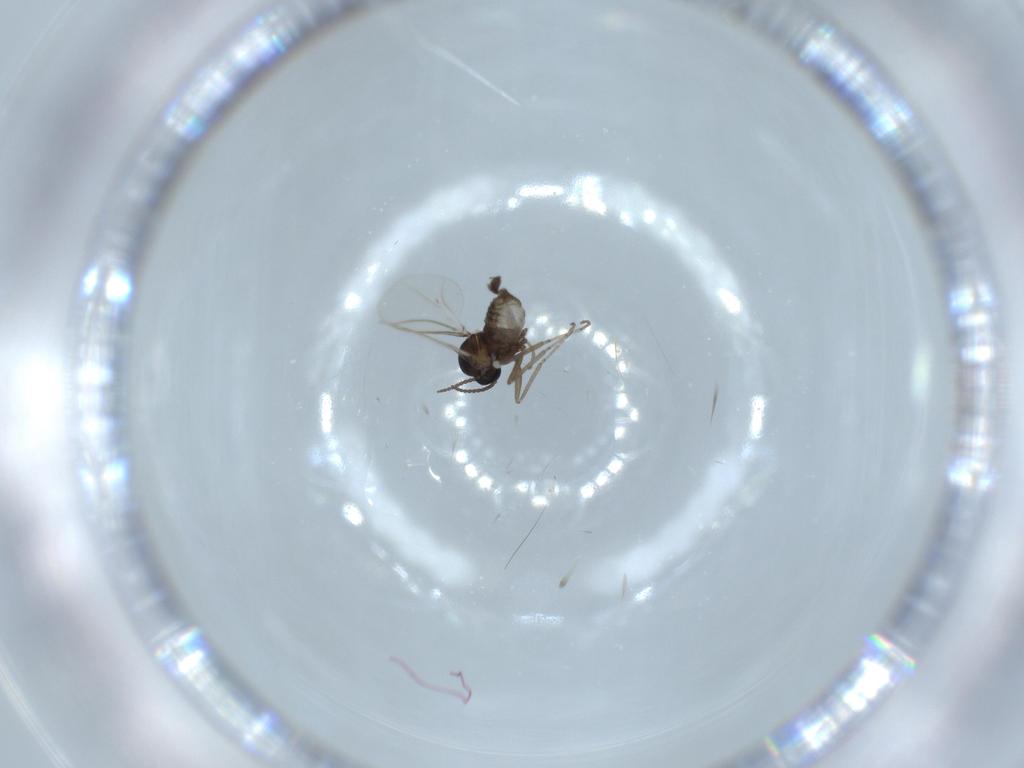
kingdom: Animalia
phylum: Arthropoda
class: Insecta
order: Diptera
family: Cecidomyiidae
